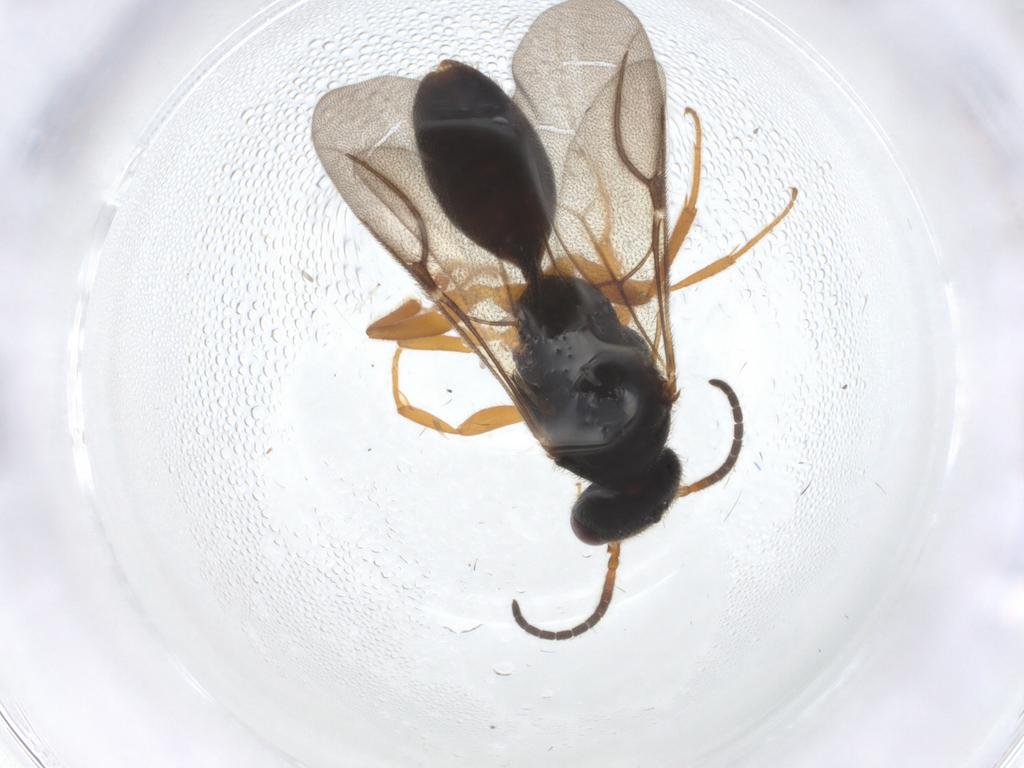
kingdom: Animalia
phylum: Arthropoda
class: Insecta
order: Hymenoptera
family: Bethylidae
